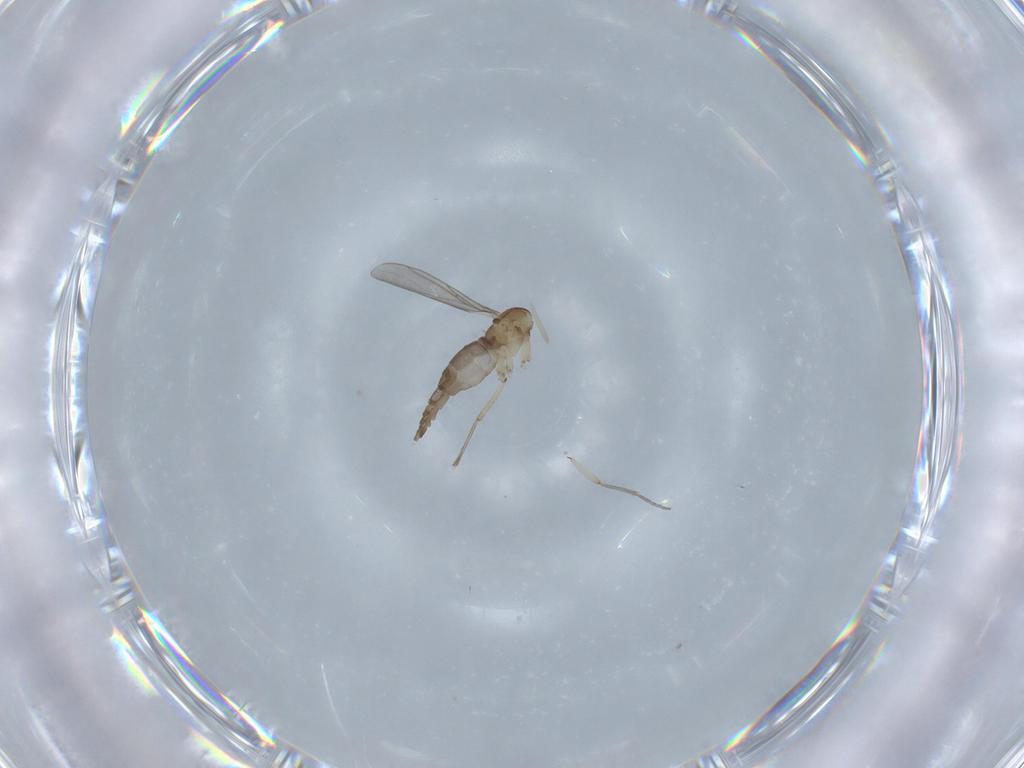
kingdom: Animalia
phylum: Arthropoda
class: Insecta
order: Diptera
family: Sciaridae
